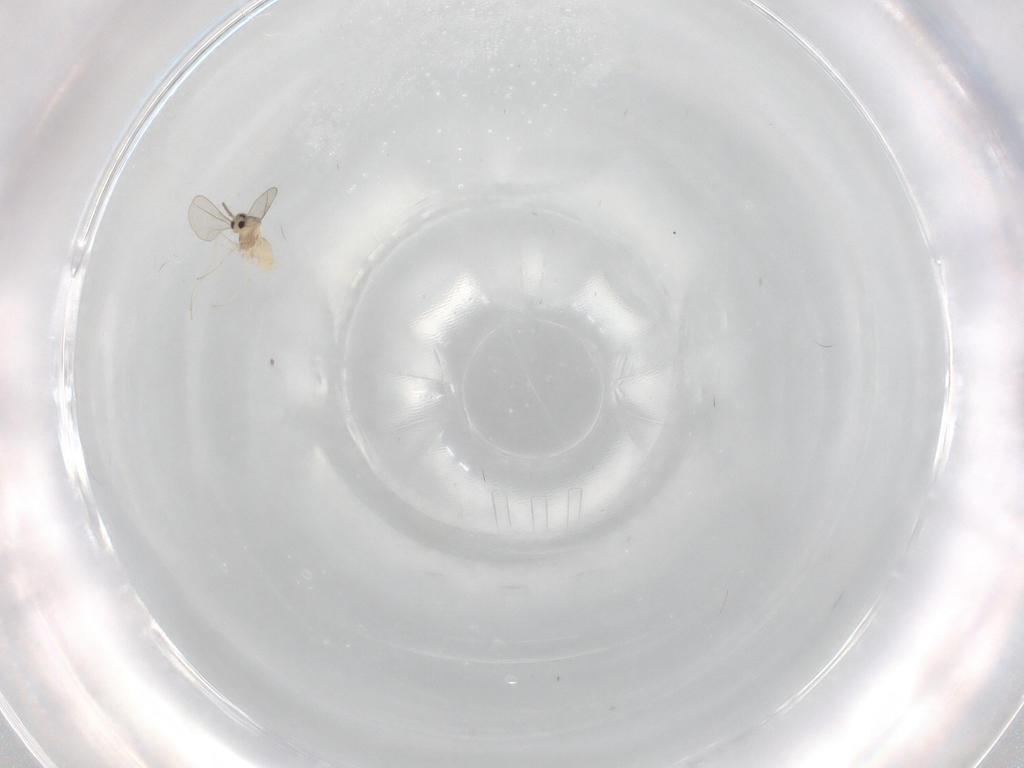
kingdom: Animalia
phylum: Arthropoda
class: Insecta
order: Diptera
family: Cecidomyiidae
